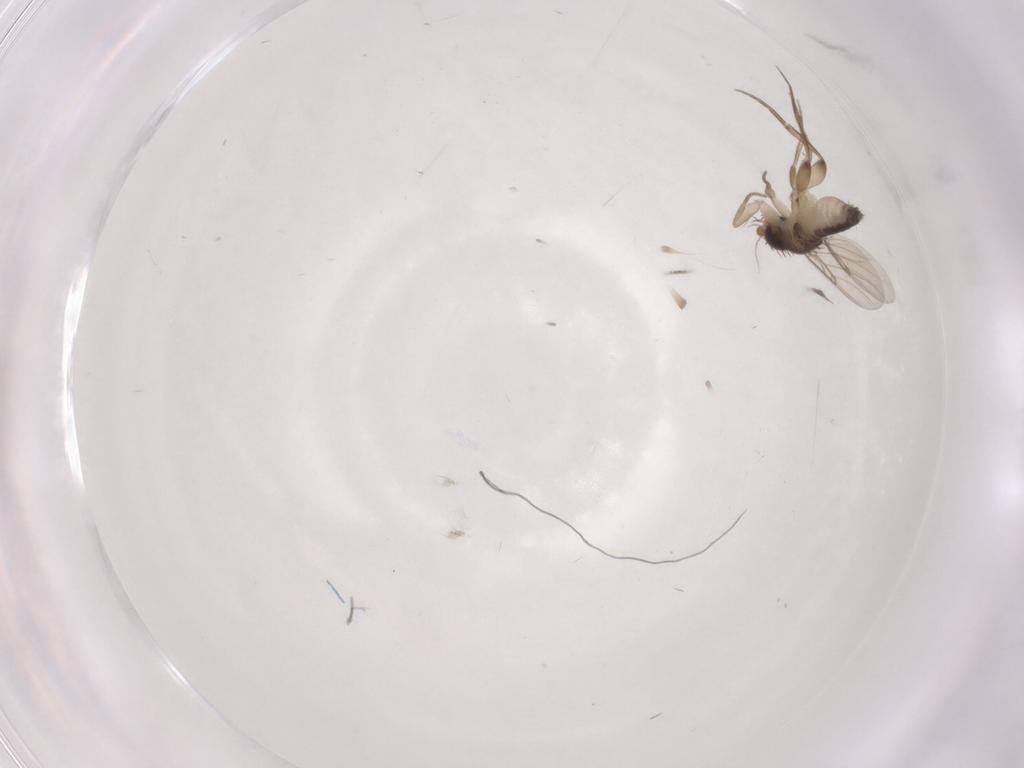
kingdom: Animalia
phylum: Arthropoda
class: Insecta
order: Diptera
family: Phoridae
